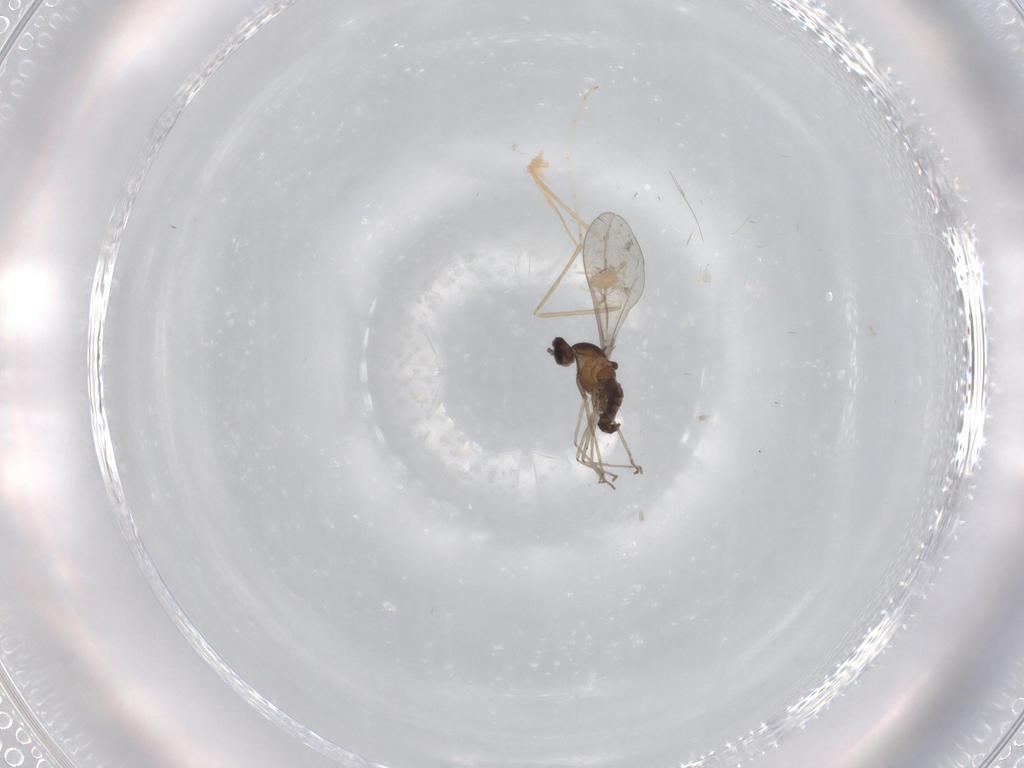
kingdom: Animalia
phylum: Arthropoda
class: Insecta
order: Diptera
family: Cecidomyiidae
